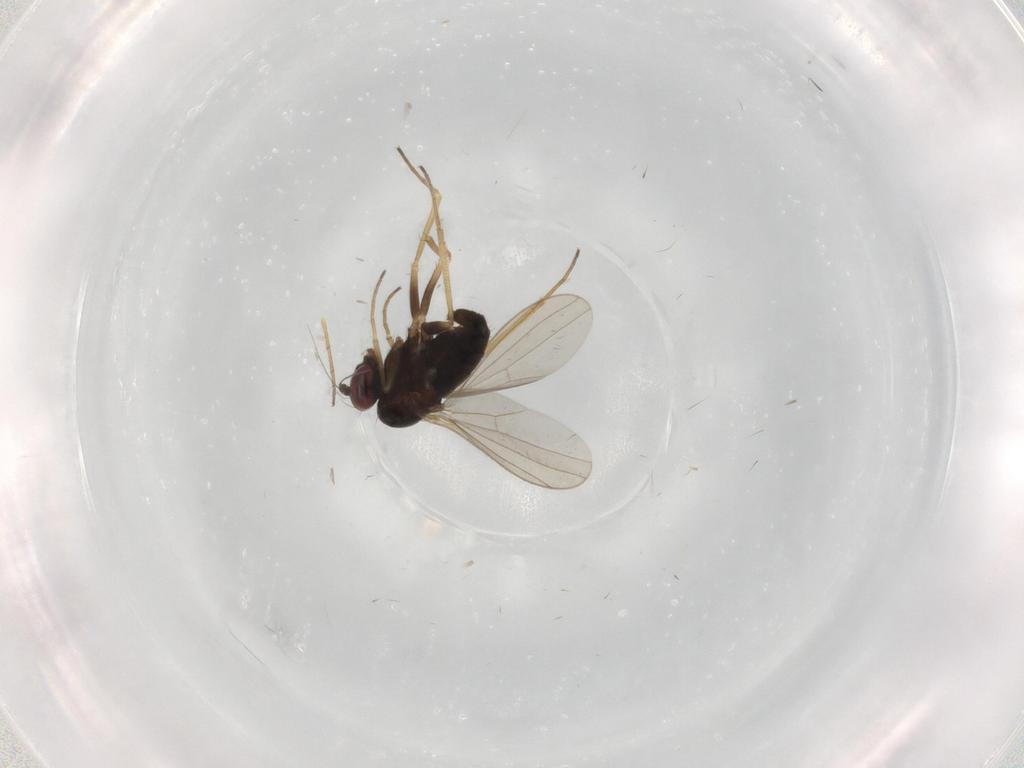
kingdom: Animalia
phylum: Arthropoda
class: Insecta
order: Diptera
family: Dolichopodidae
